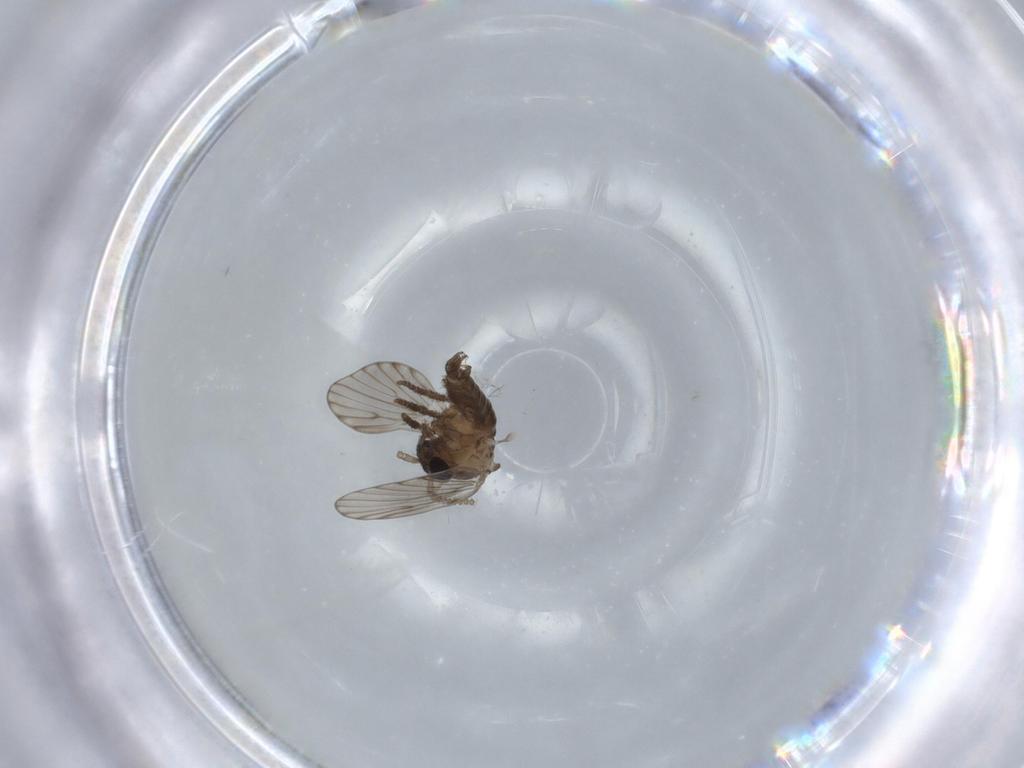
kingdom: Animalia
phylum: Arthropoda
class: Insecta
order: Diptera
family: Sciaridae
